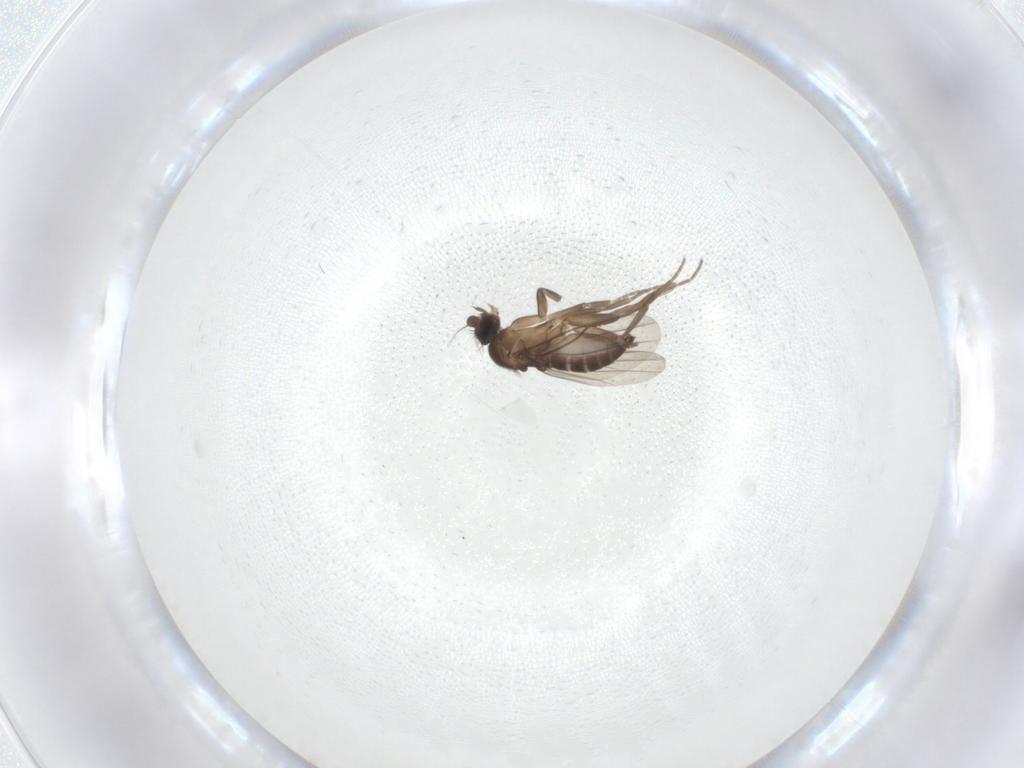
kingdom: Animalia
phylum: Arthropoda
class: Insecta
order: Diptera
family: Phoridae
